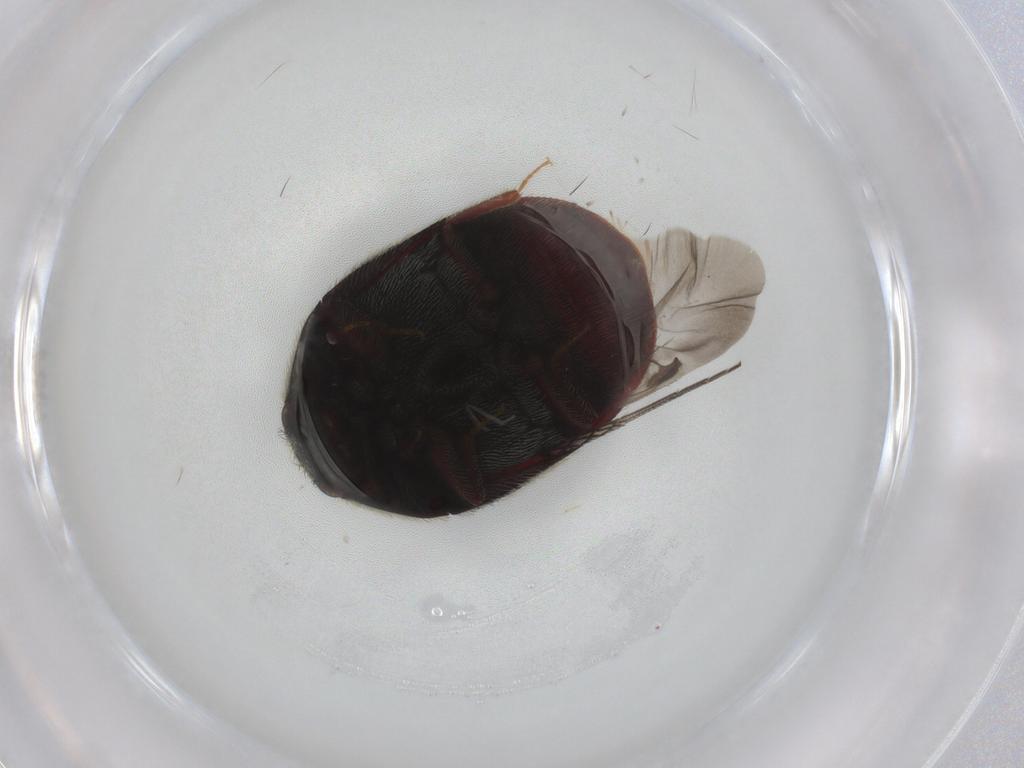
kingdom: Animalia
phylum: Arthropoda
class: Insecta
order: Coleoptera
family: Dermestidae
